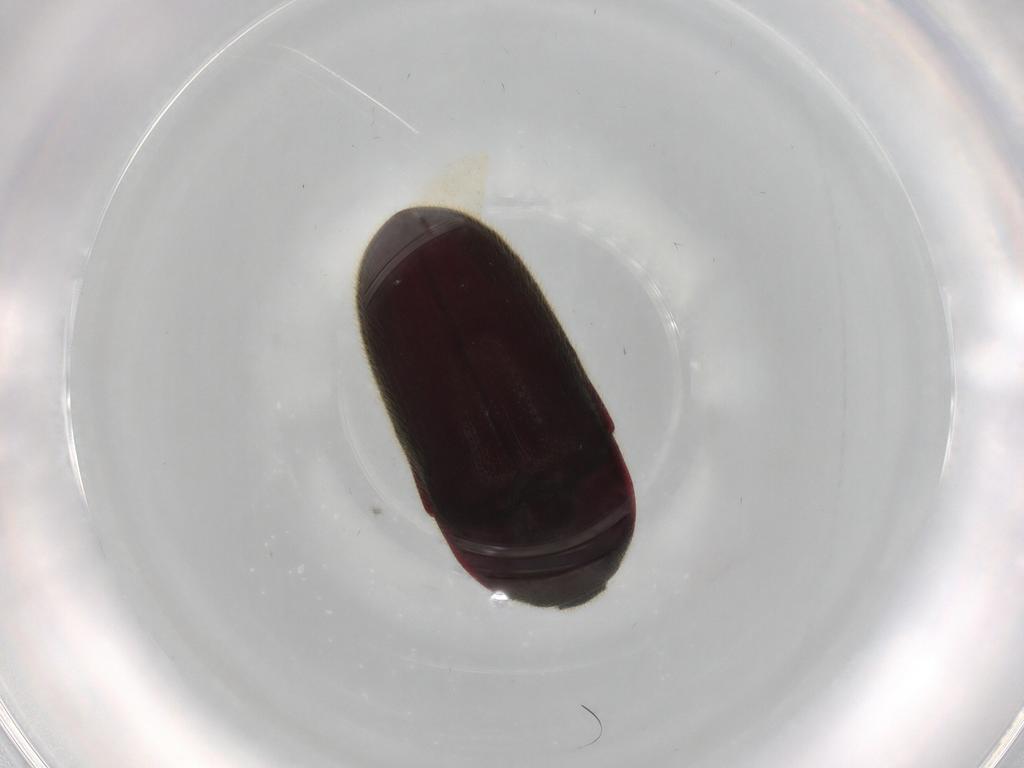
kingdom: Animalia
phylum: Arthropoda
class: Insecta
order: Coleoptera
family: Throscidae
